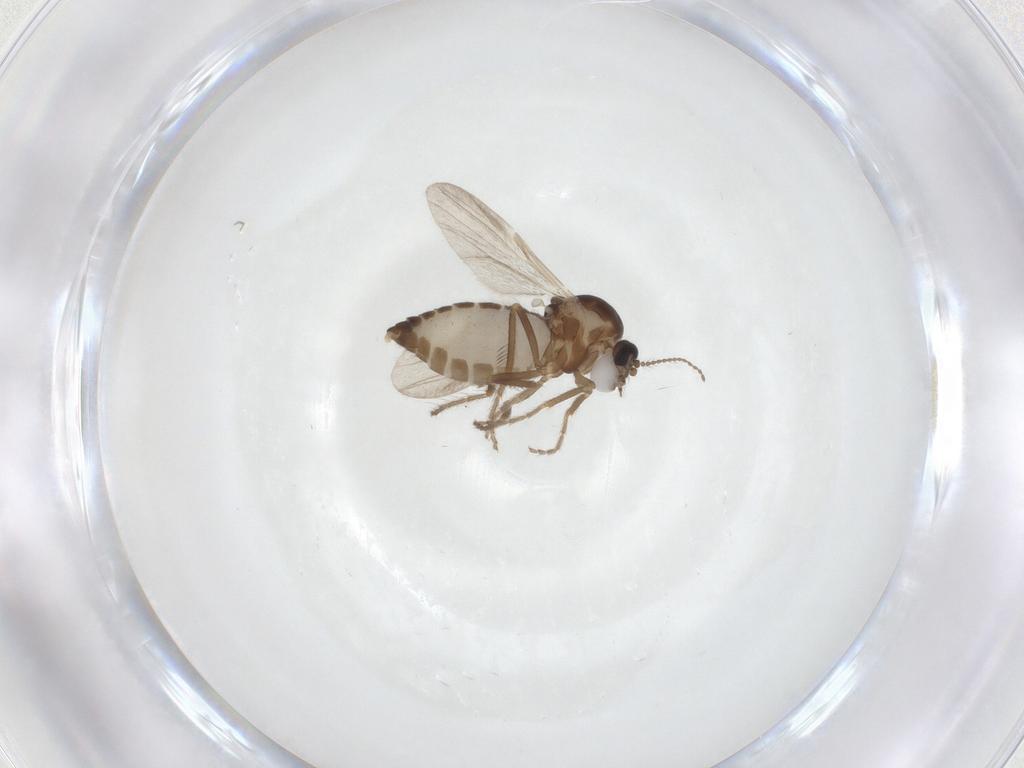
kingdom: Animalia
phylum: Arthropoda
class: Insecta
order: Diptera
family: Ceratopogonidae
